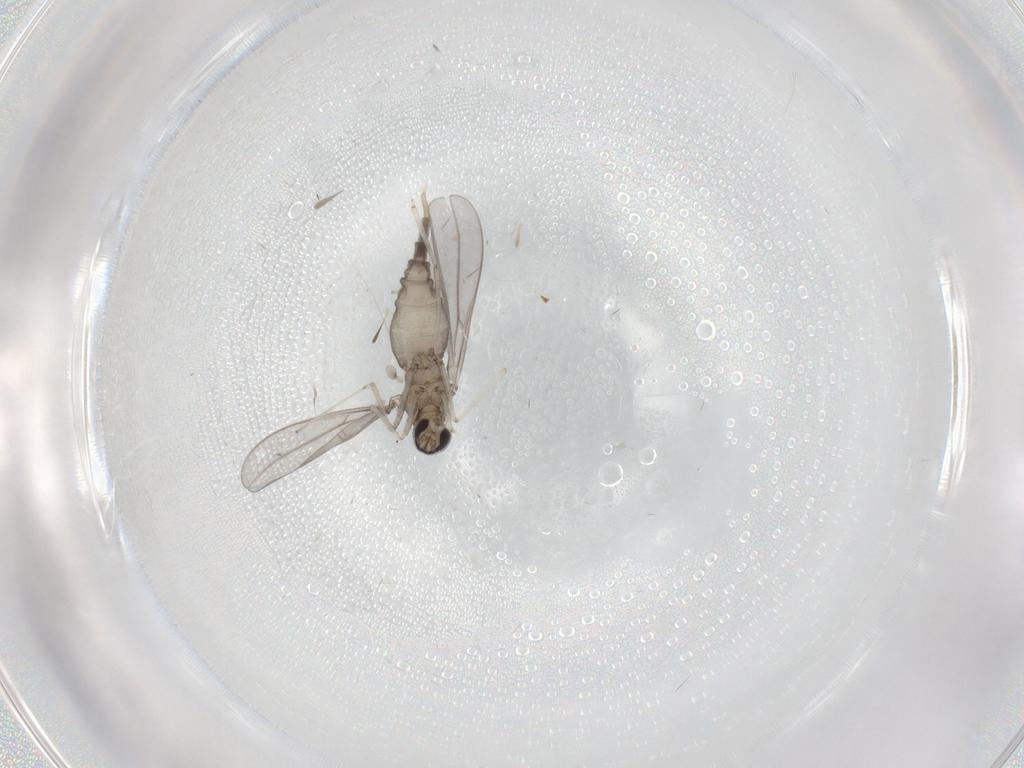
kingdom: Animalia
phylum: Arthropoda
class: Insecta
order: Diptera
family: Cecidomyiidae
